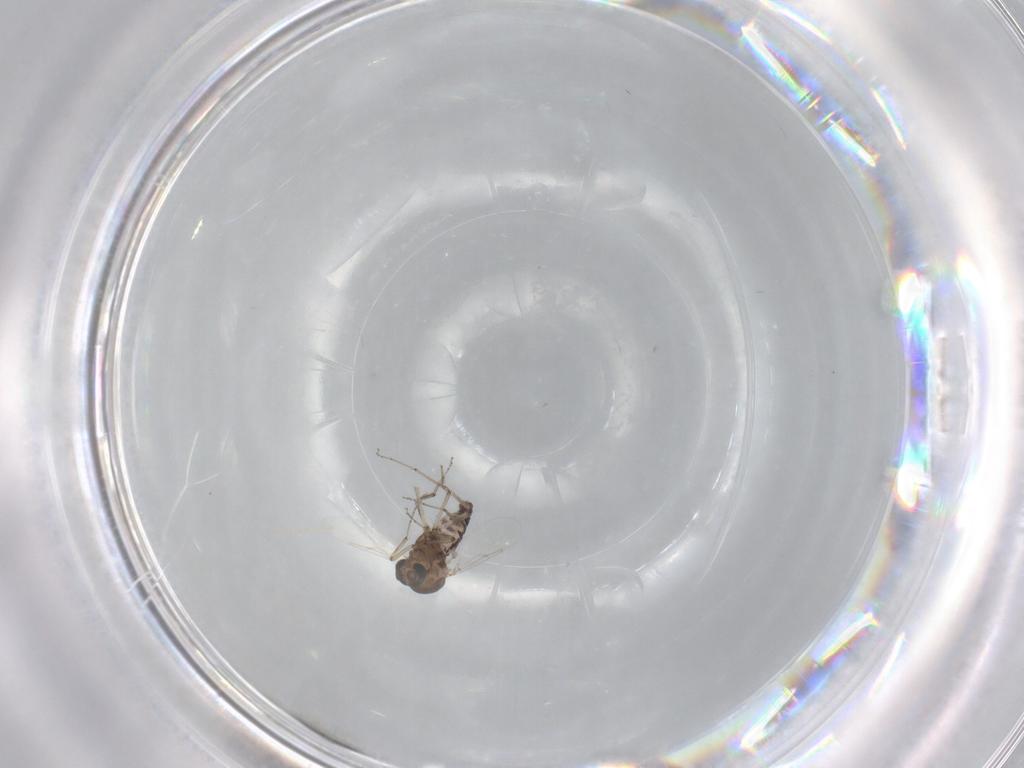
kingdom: Animalia
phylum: Arthropoda
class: Insecta
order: Diptera
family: Ceratopogonidae
